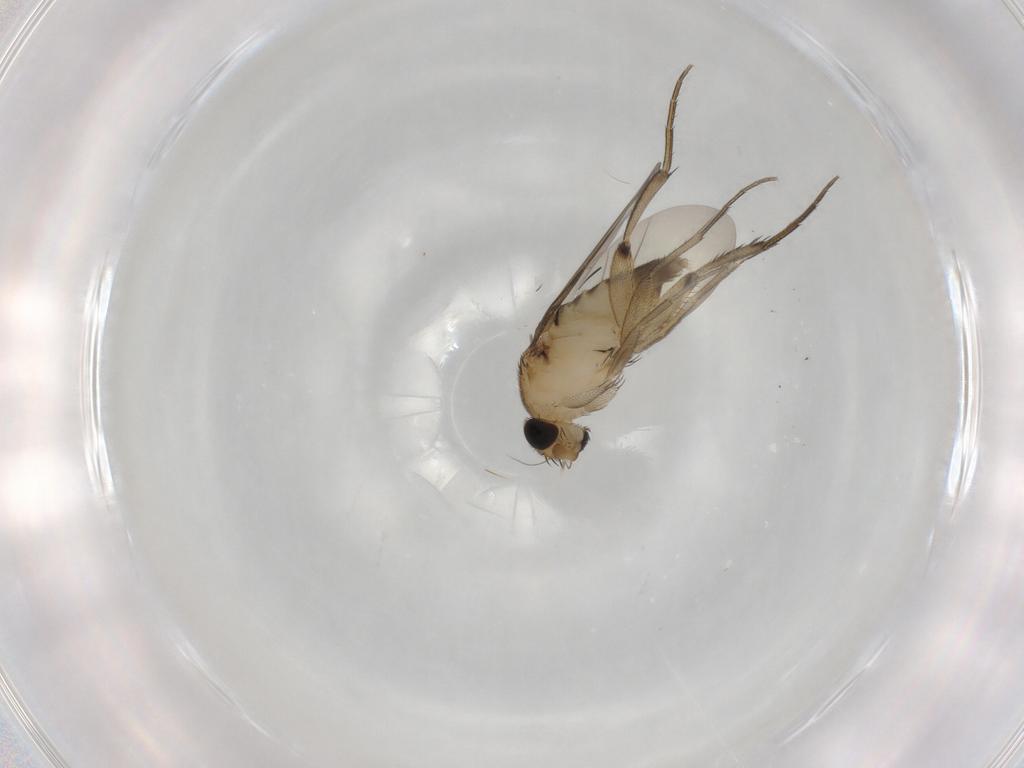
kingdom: Animalia
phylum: Arthropoda
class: Insecta
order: Diptera
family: Phoridae
